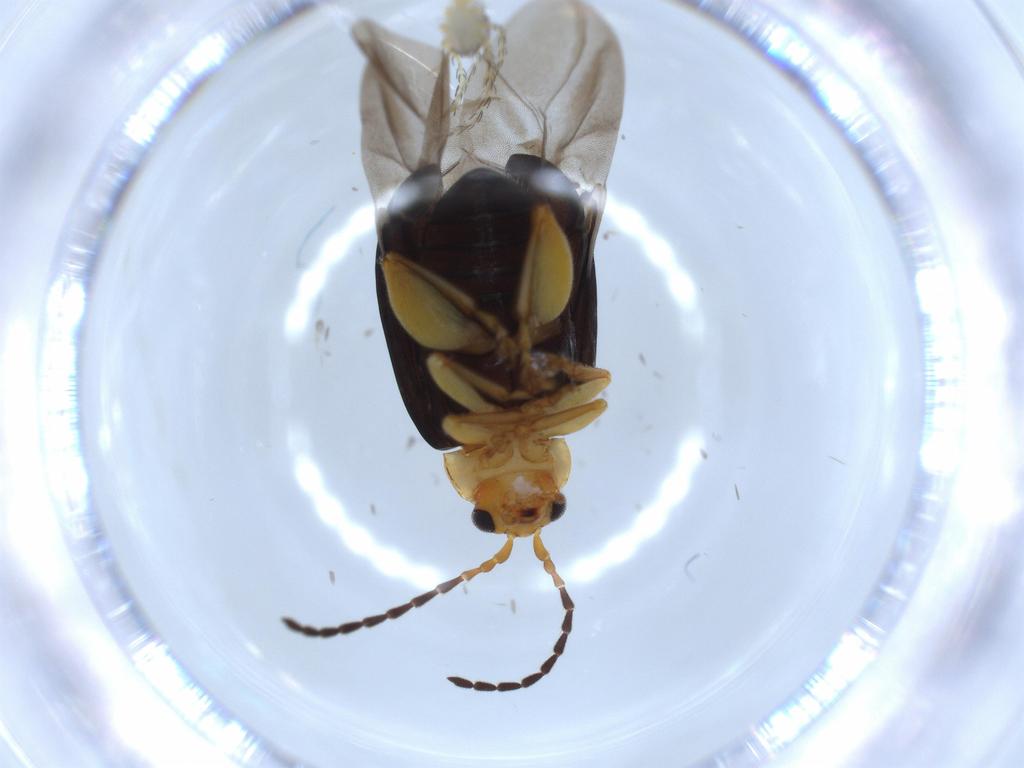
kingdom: Animalia
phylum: Arthropoda
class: Insecta
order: Coleoptera
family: Chrysomelidae
